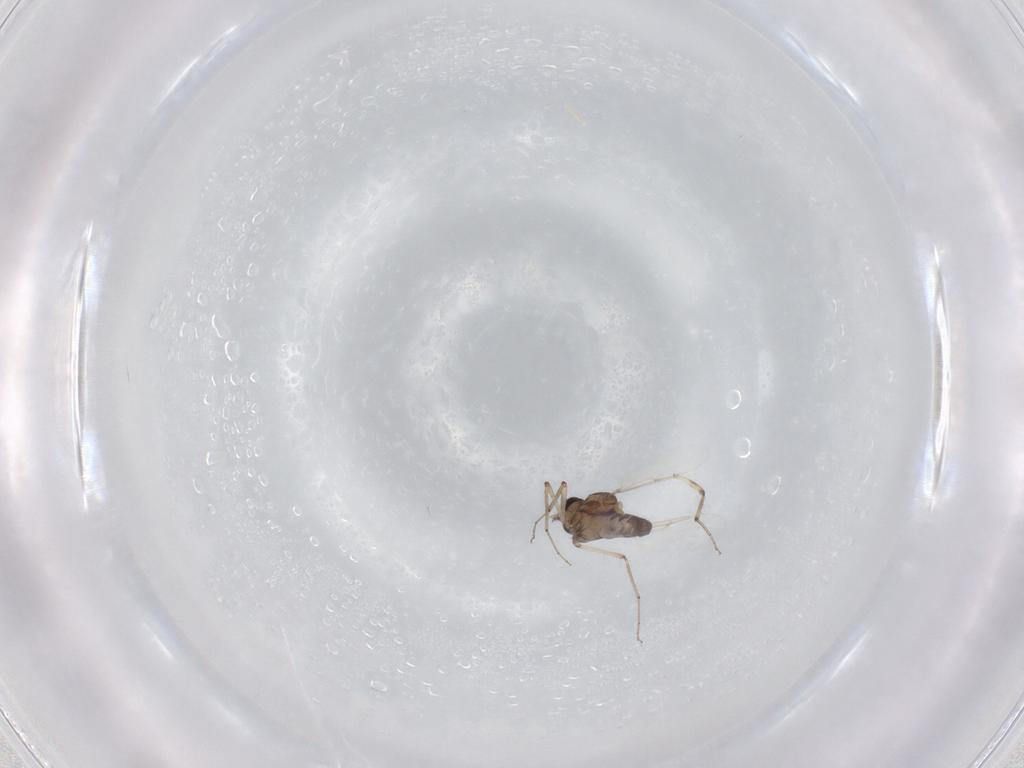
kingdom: Animalia
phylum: Arthropoda
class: Insecta
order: Diptera
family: Ceratopogonidae
